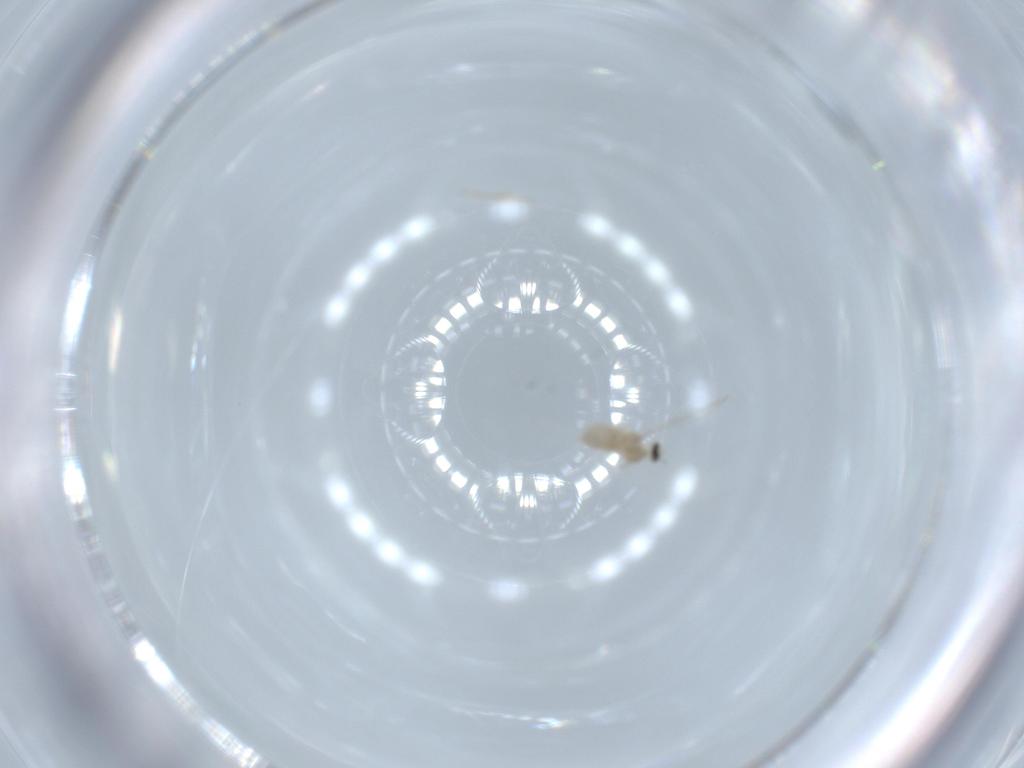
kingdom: Animalia
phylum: Arthropoda
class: Insecta
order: Diptera
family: Cecidomyiidae
